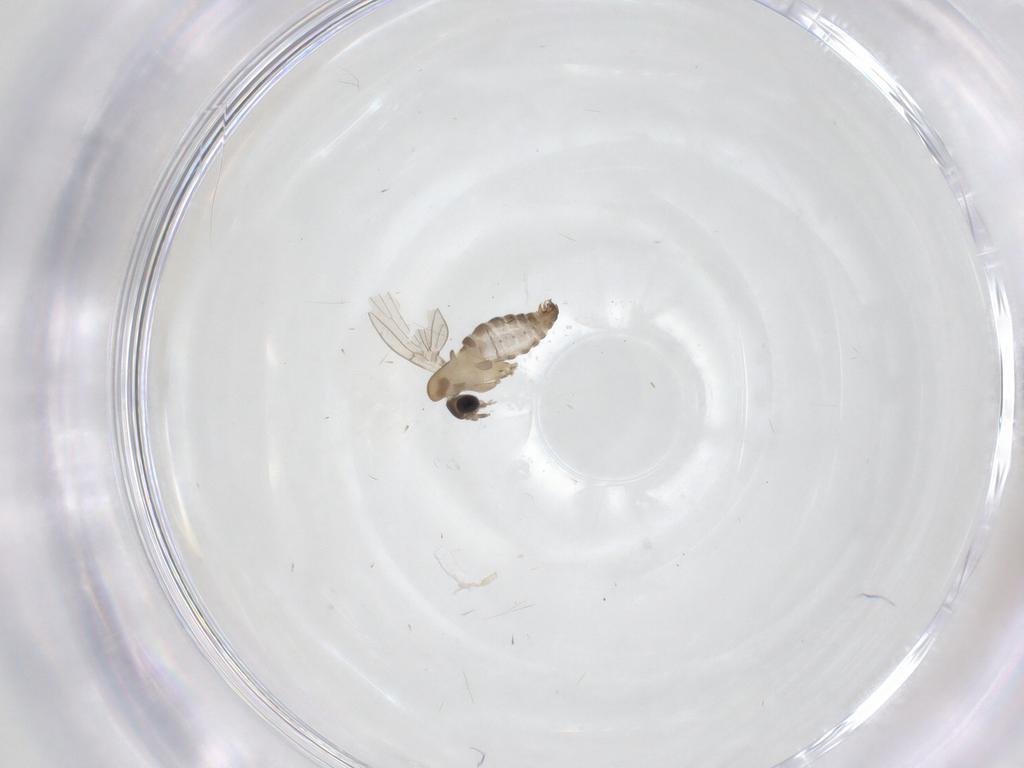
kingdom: Animalia
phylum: Arthropoda
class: Insecta
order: Diptera
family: Psychodidae
